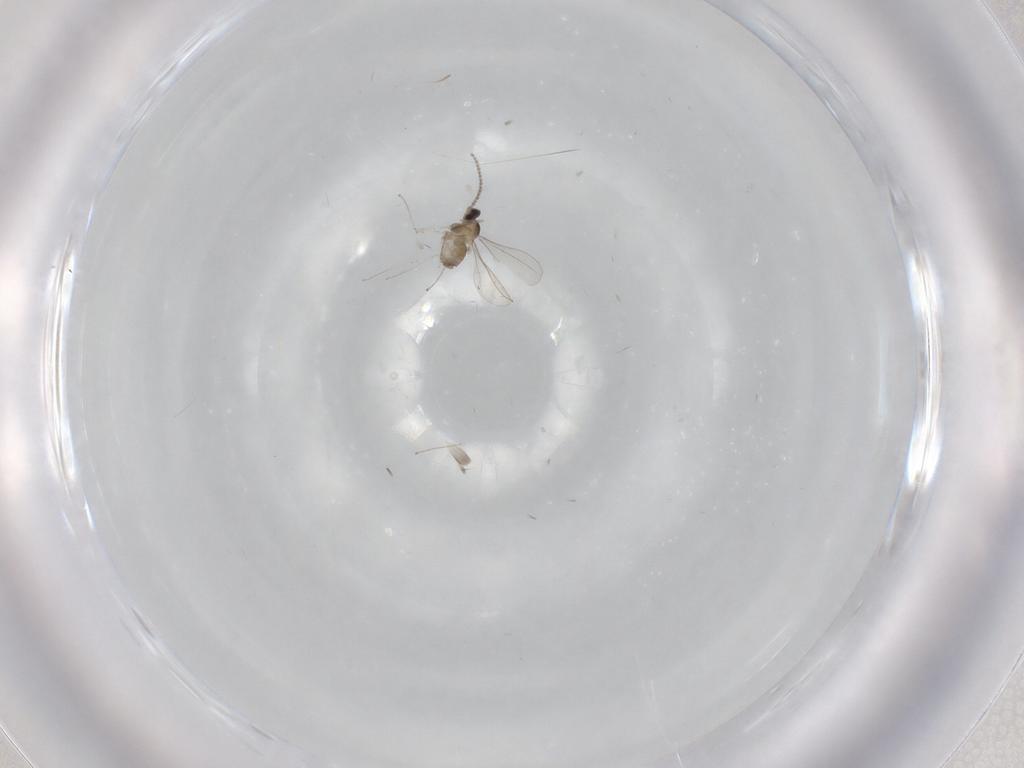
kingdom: Animalia
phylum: Arthropoda
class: Insecta
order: Diptera
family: Cecidomyiidae
